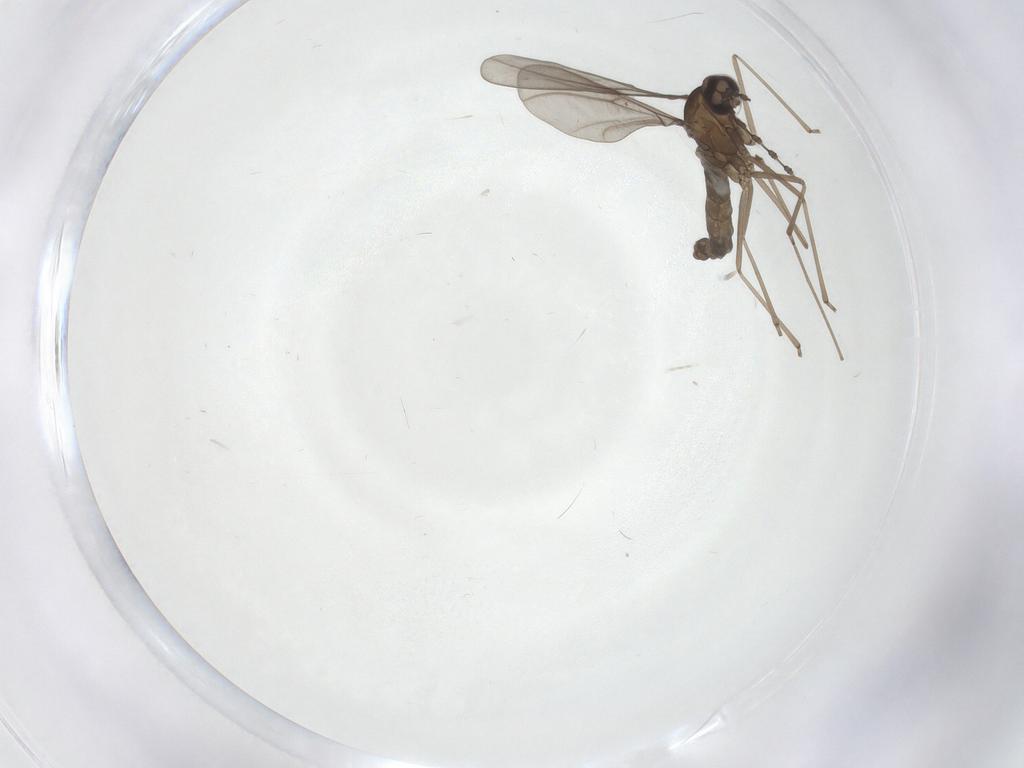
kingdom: Animalia
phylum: Arthropoda
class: Insecta
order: Diptera
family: Cecidomyiidae
